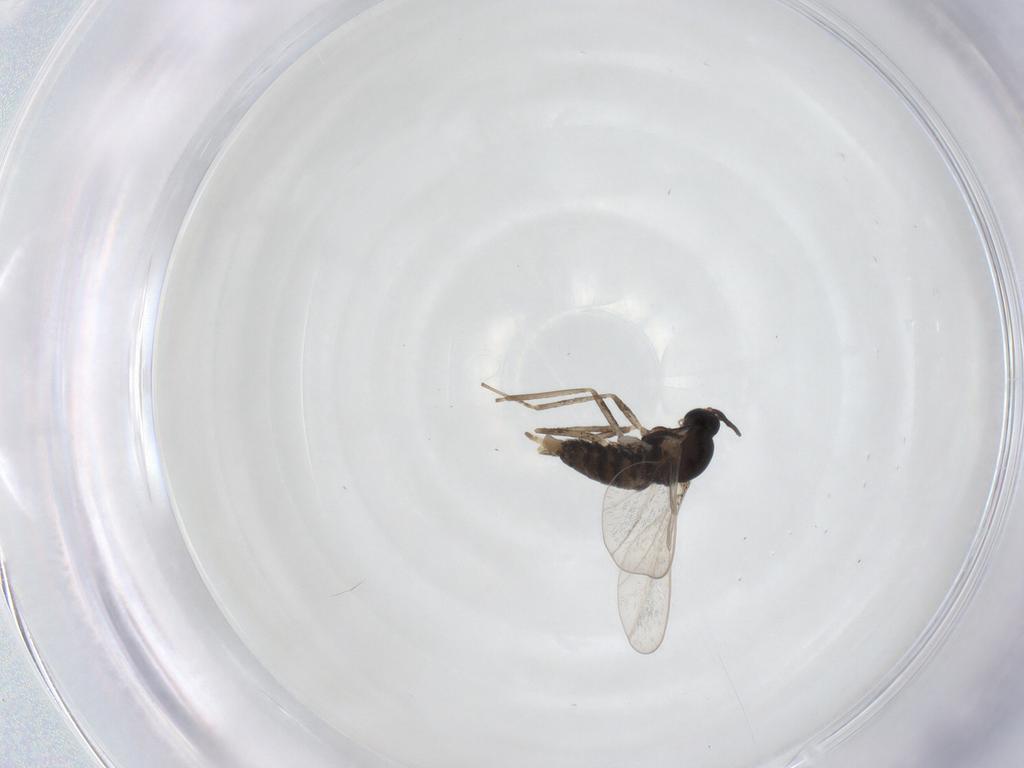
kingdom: Animalia
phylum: Arthropoda
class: Insecta
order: Diptera
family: Cecidomyiidae
